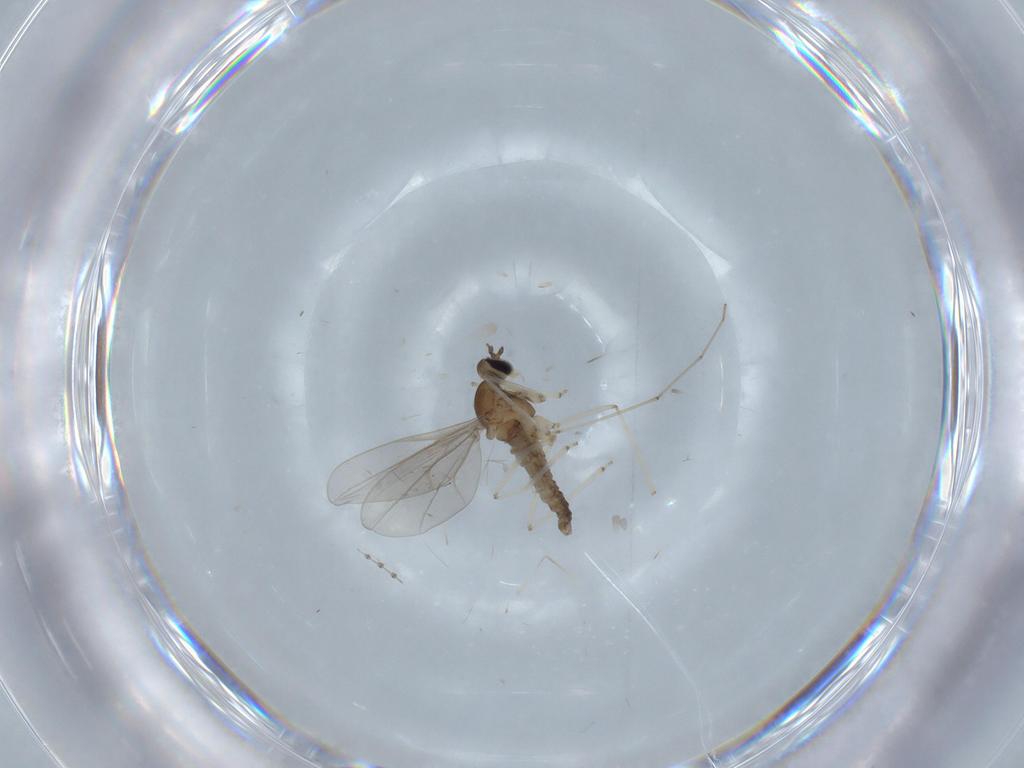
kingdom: Animalia
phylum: Arthropoda
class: Insecta
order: Diptera
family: Cecidomyiidae
